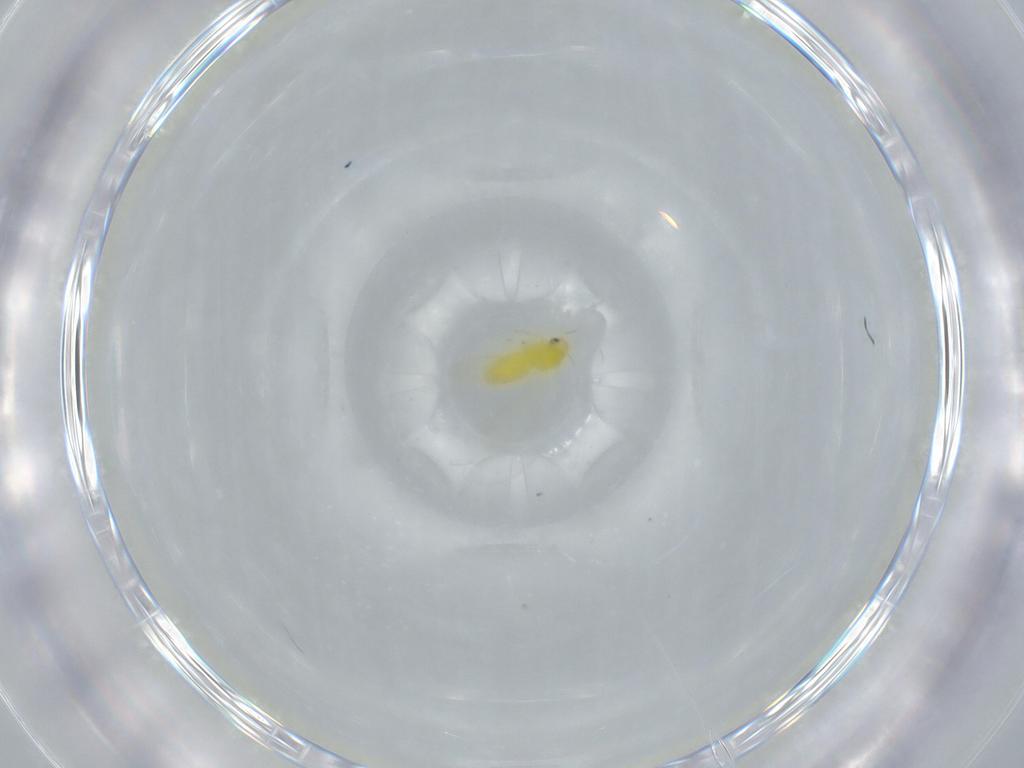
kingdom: Animalia
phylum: Arthropoda
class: Insecta
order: Hemiptera
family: Aleyrodidae
